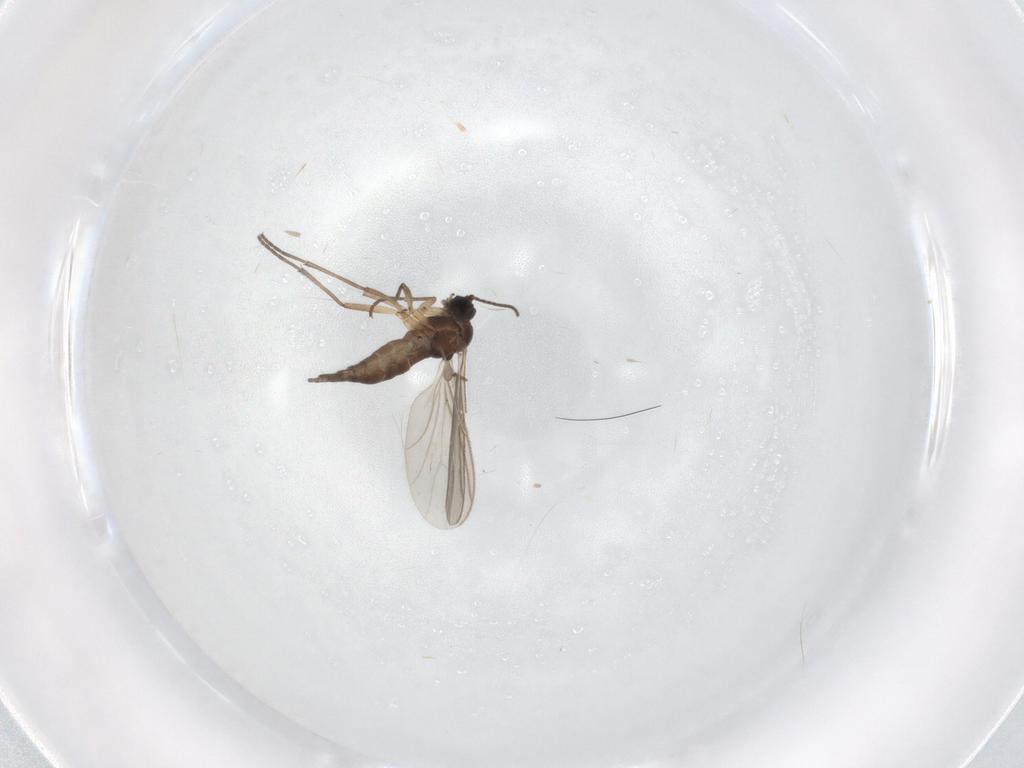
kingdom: Animalia
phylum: Arthropoda
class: Insecta
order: Diptera
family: Sciaridae
